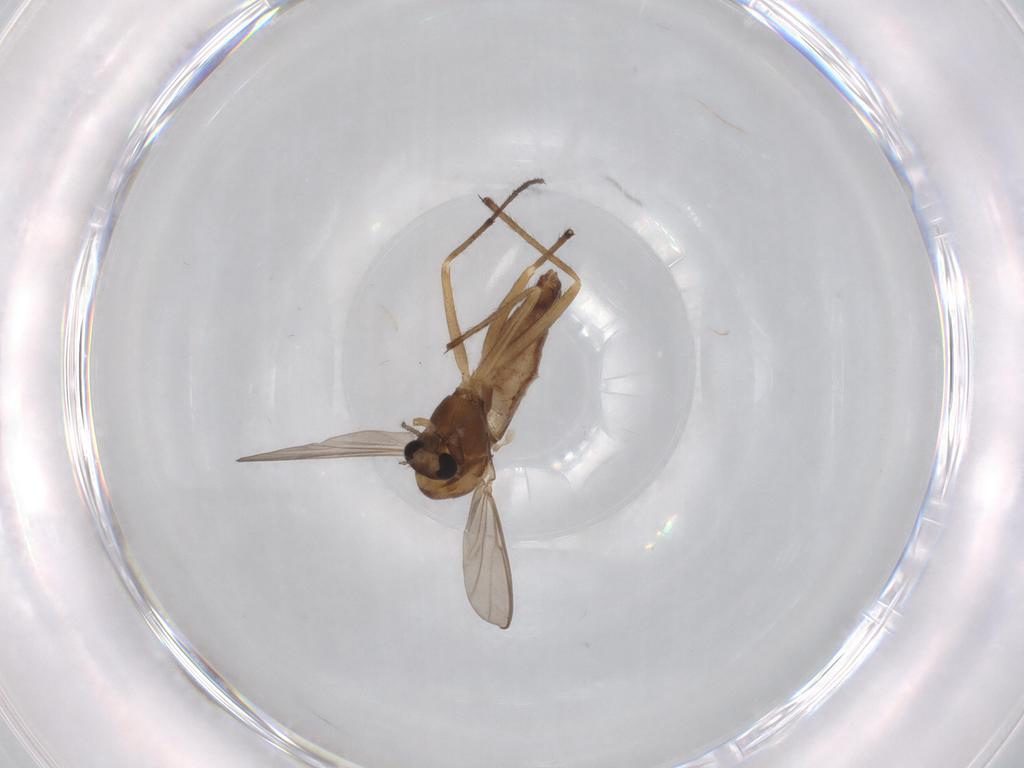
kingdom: Animalia
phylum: Arthropoda
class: Insecta
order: Diptera
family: Chironomidae
